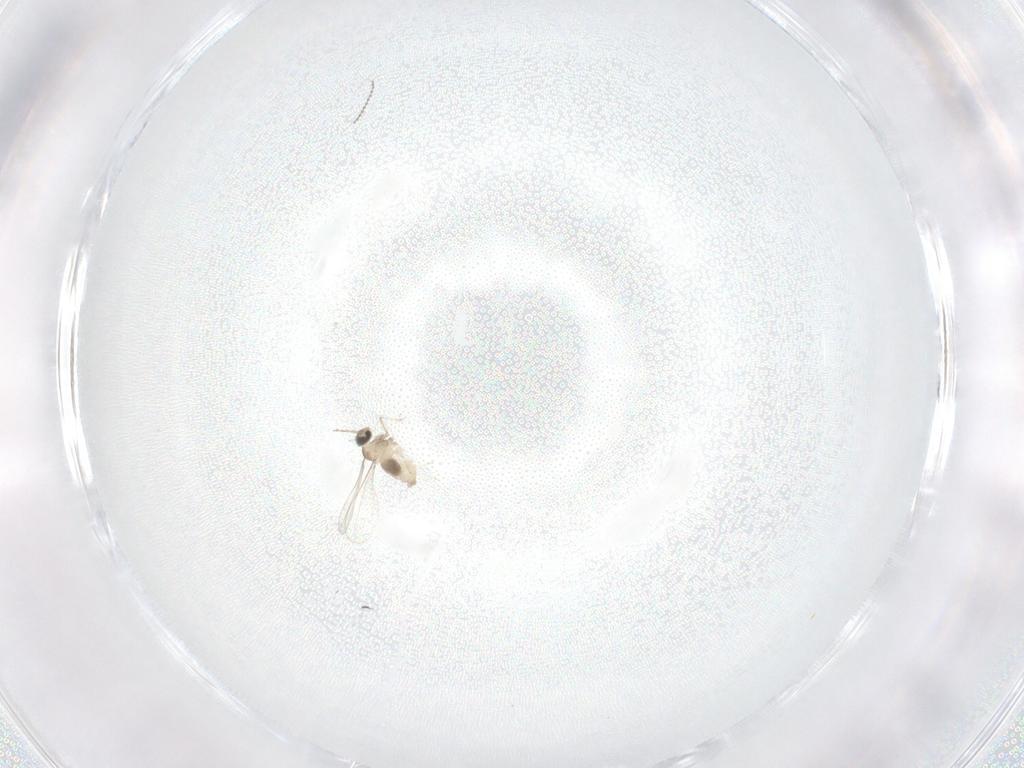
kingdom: Animalia
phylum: Arthropoda
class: Insecta
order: Diptera
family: Cecidomyiidae
